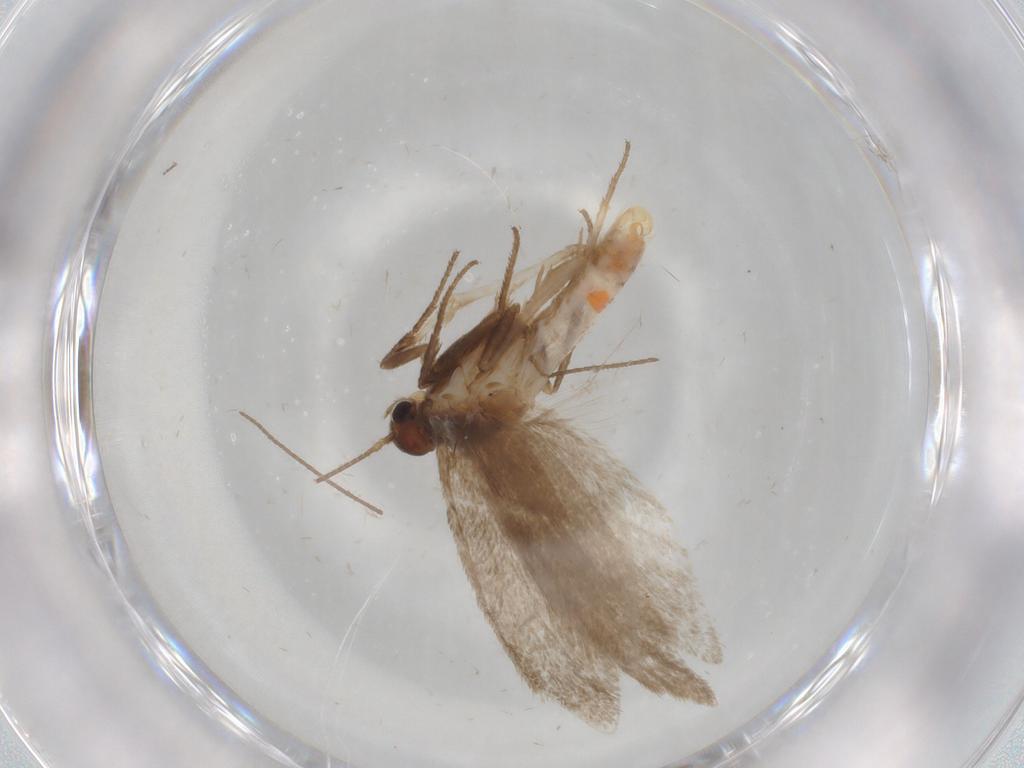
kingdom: Animalia
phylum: Arthropoda
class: Insecta
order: Lepidoptera
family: Limacodidae
